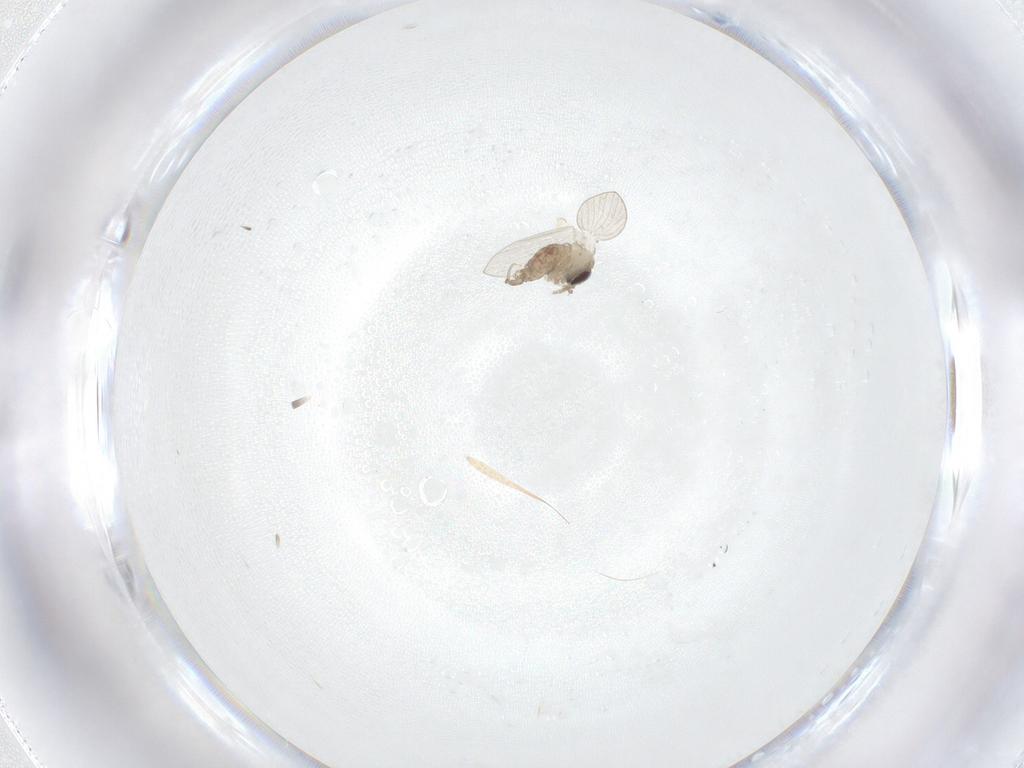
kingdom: Animalia
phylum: Arthropoda
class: Insecta
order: Diptera
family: Psychodidae
